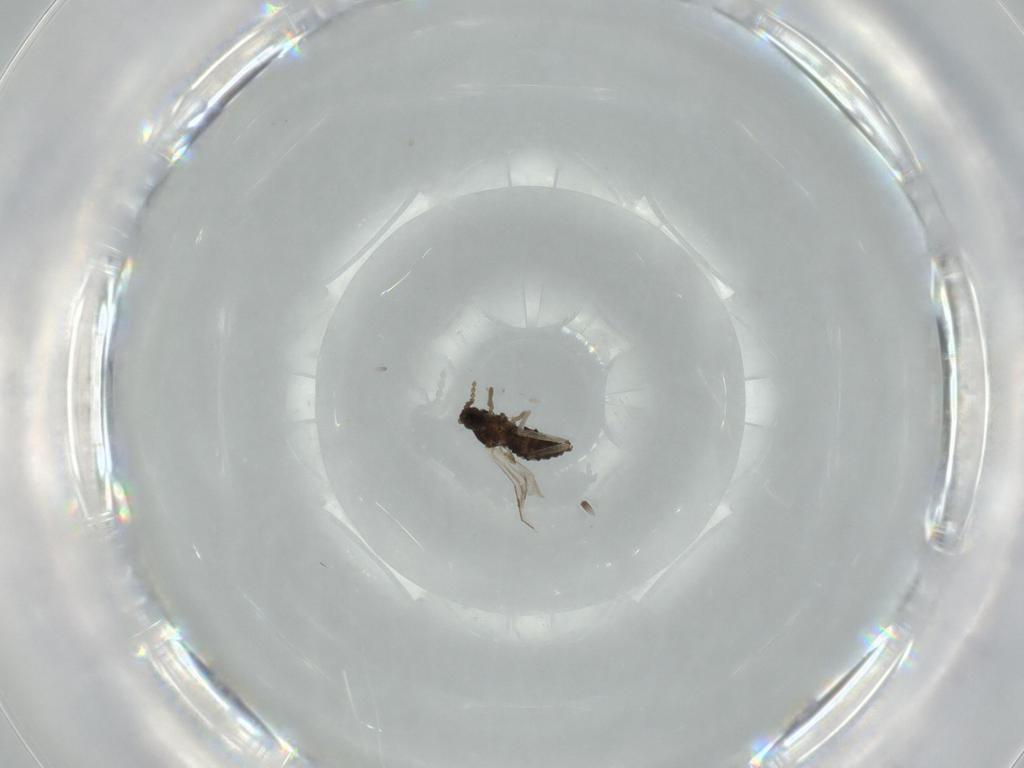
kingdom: Animalia
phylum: Arthropoda
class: Insecta
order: Diptera
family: Cecidomyiidae
